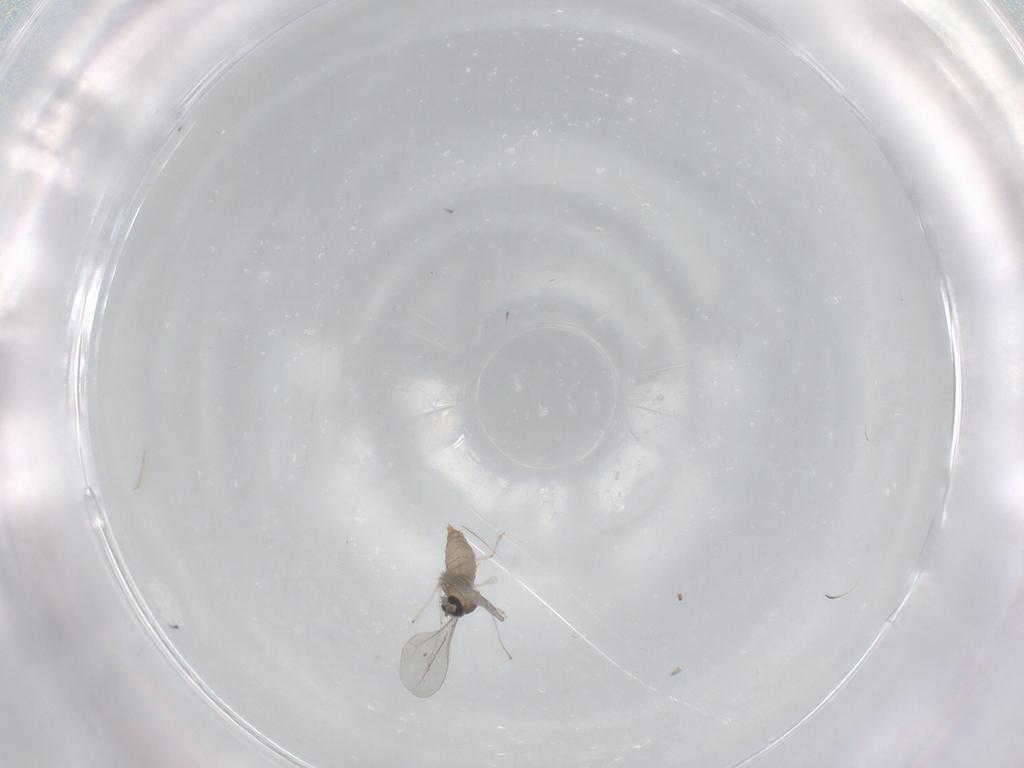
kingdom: Animalia
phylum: Arthropoda
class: Insecta
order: Diptera
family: Cecidomyiidae
